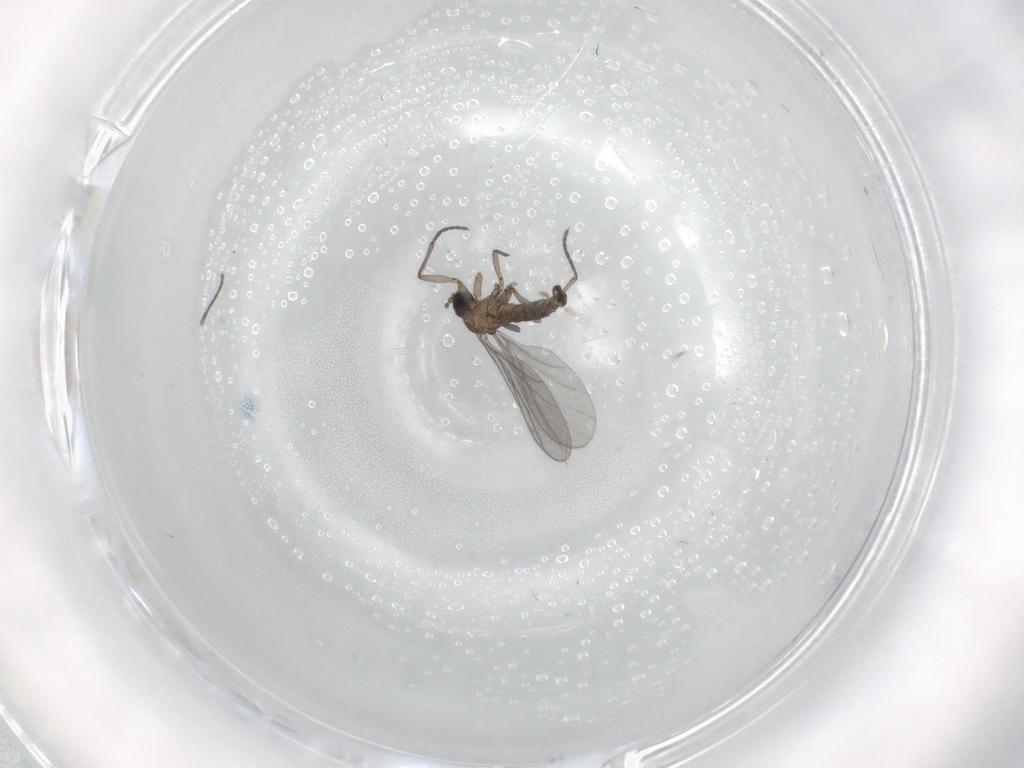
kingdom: Animalia
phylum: Arthropoda
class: Insecta
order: Diptera
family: Sciaridae
